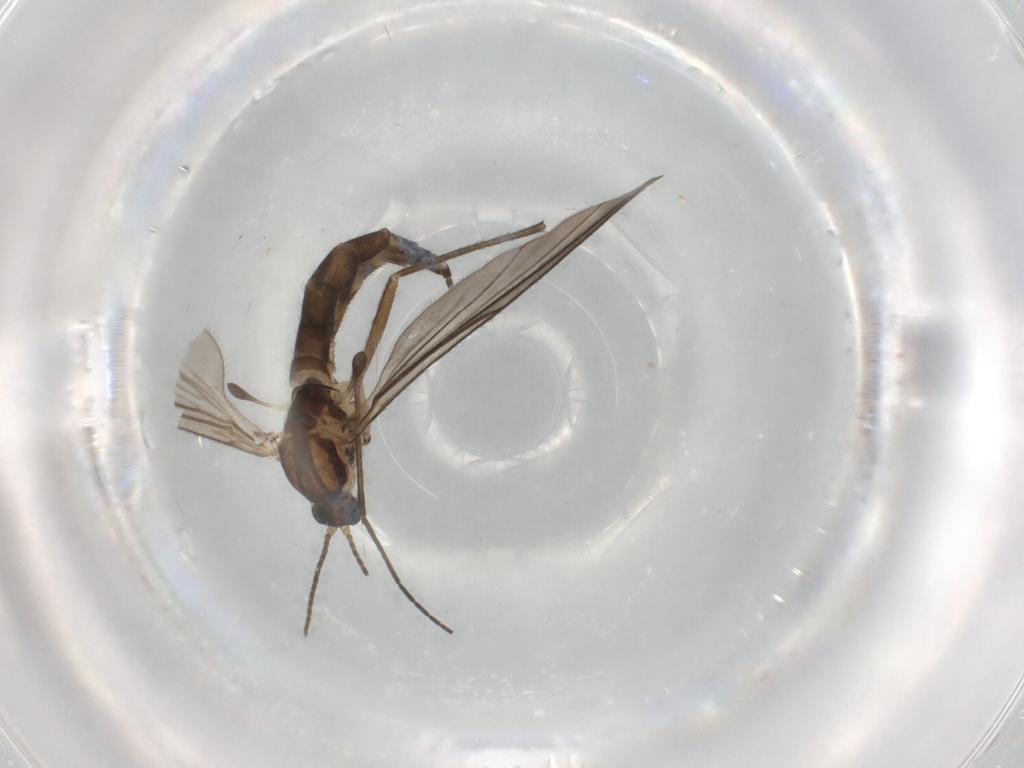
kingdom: Animalia
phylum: Arthropoda
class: Insecta
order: Diptera
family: Sciaridae
